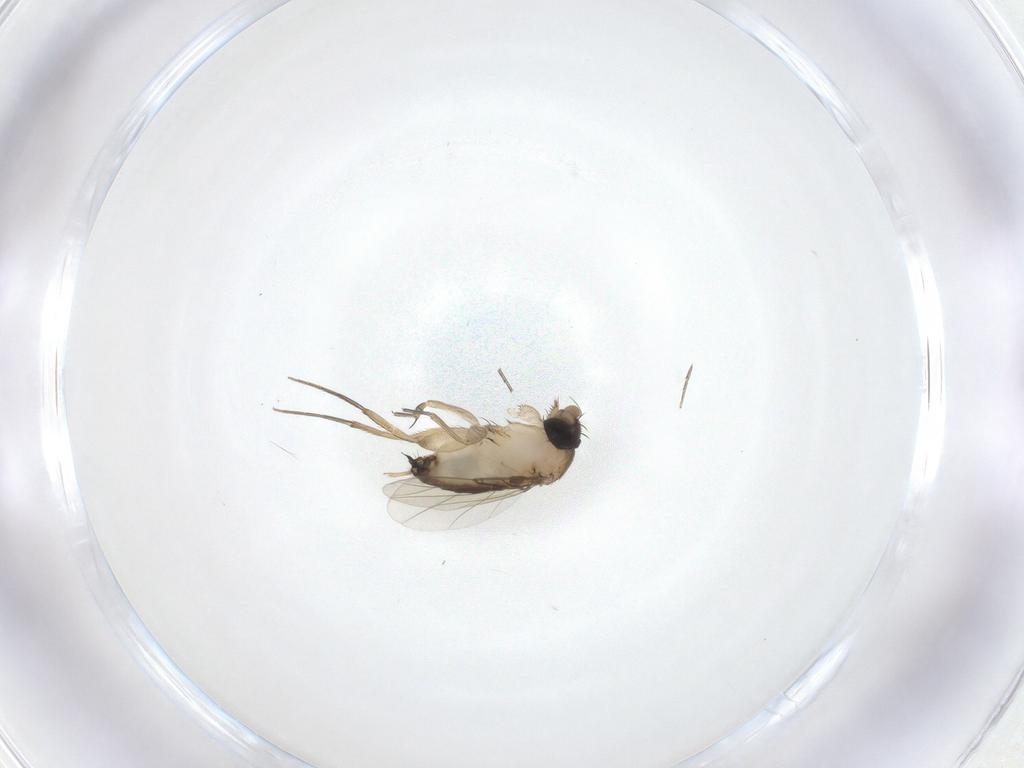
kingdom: Animalia
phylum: Arthropoda
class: Insecta
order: Diptera
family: Phoridae
